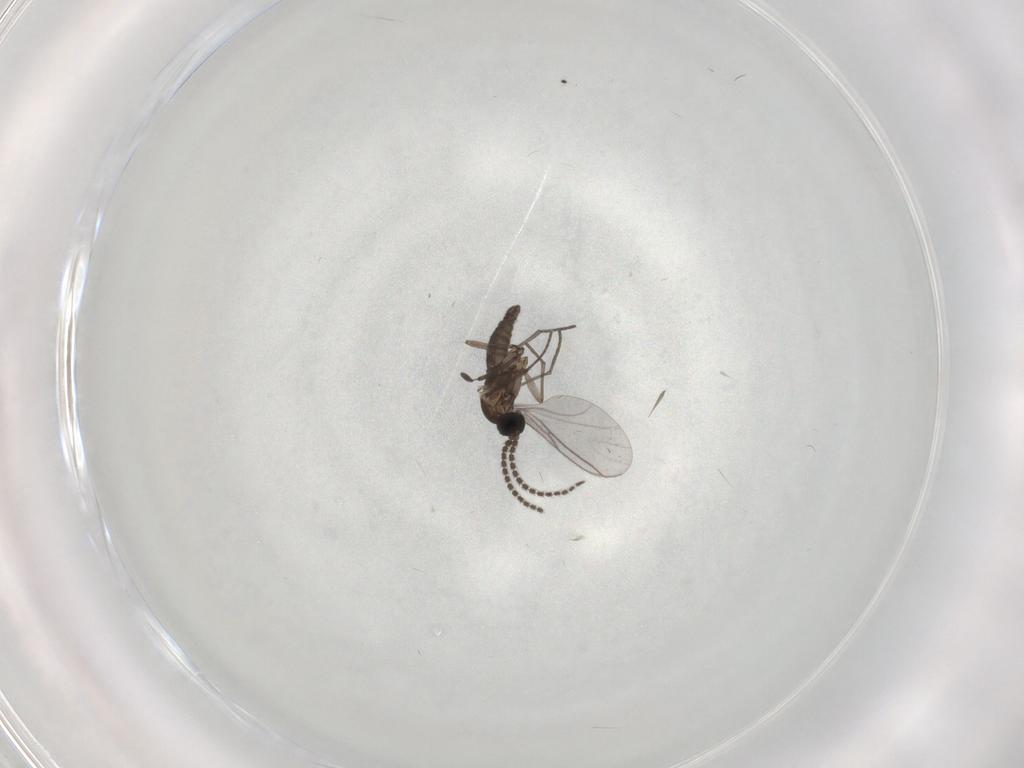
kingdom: Animalia
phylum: Arthropoda
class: Insecta
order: Diptera
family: Sciaridae
